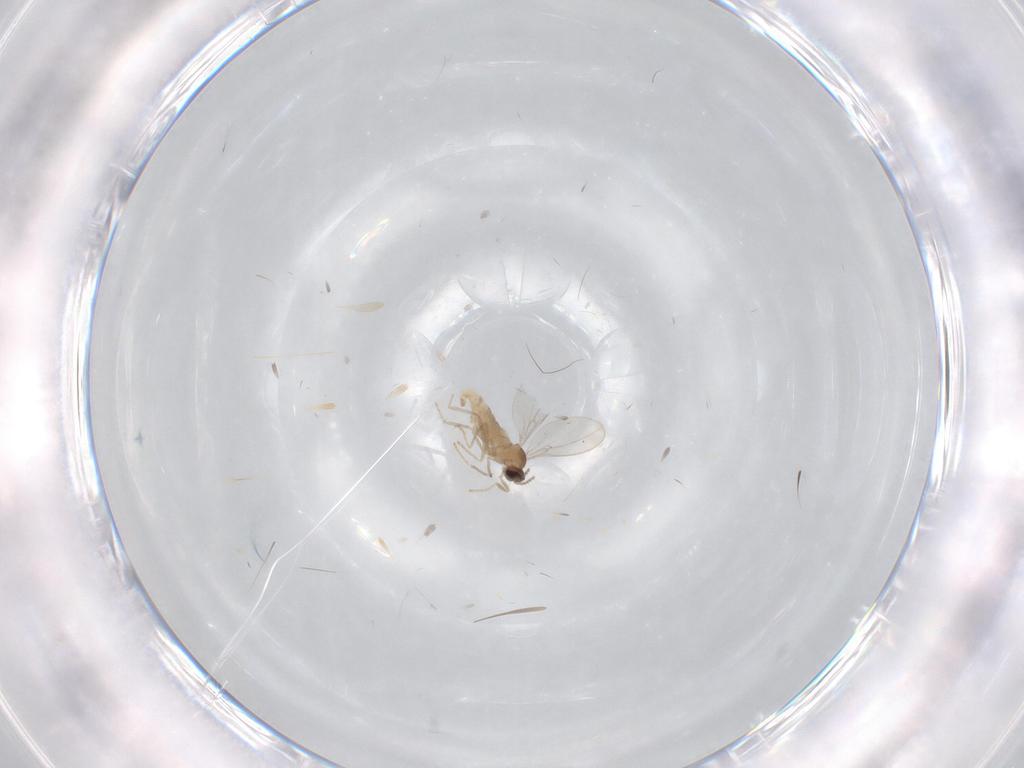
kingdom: Animalia
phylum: Arthropoda
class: Insecta
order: Diptera
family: Cecidomyiidae
